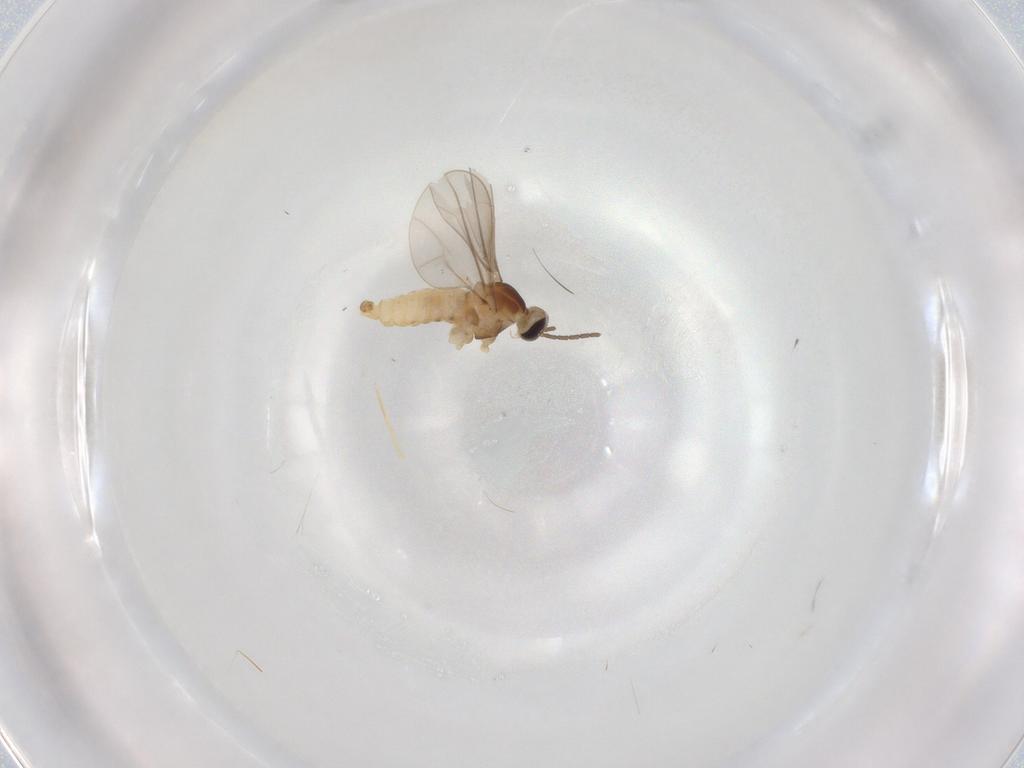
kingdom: Animalia
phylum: Arthropoda
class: Insecta
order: Diptera
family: Cecidomyiidae
